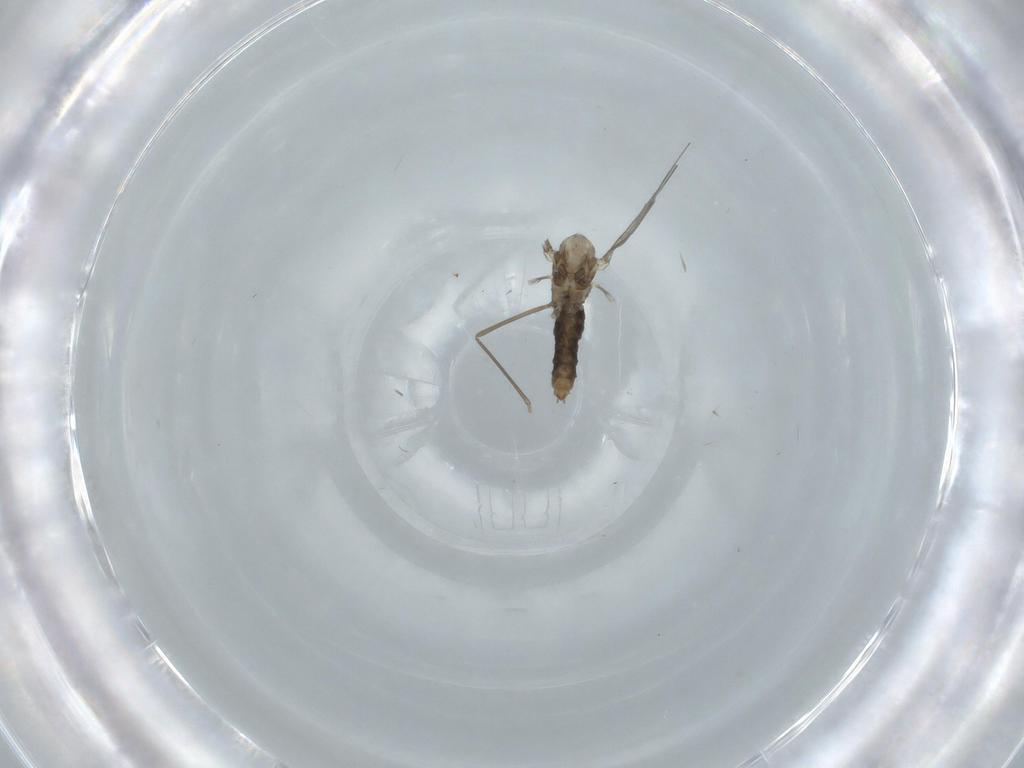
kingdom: Animalia
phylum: Arthropoda
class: Insecta
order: Diptera
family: Cecidomyiidae
